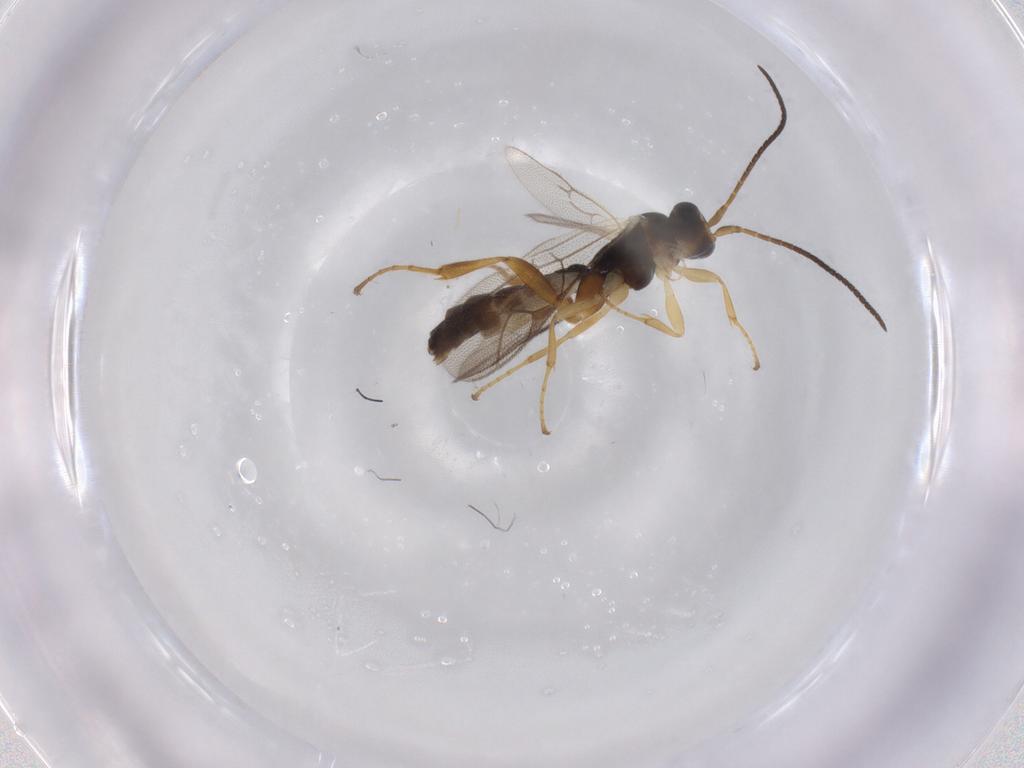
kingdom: Animalia
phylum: Arthropoda
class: Insecta
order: Hymenoptera
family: Ichneumonidae
